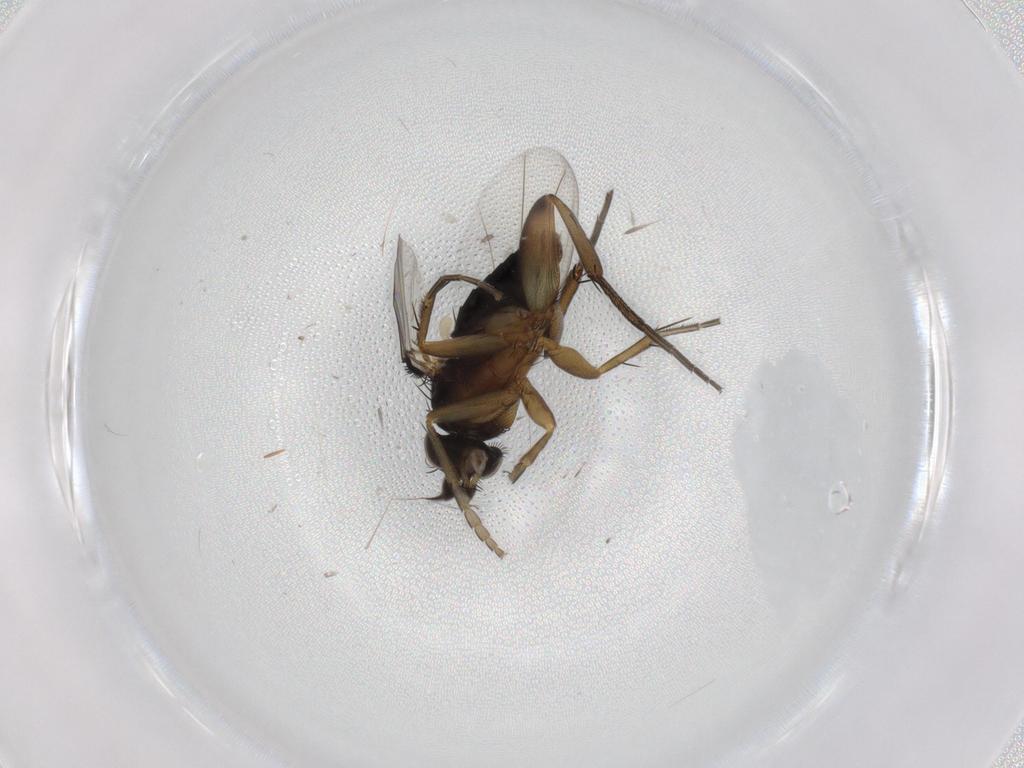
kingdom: Animalia
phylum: Arthropoda
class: Insecta
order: Diptera
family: Phoridae
